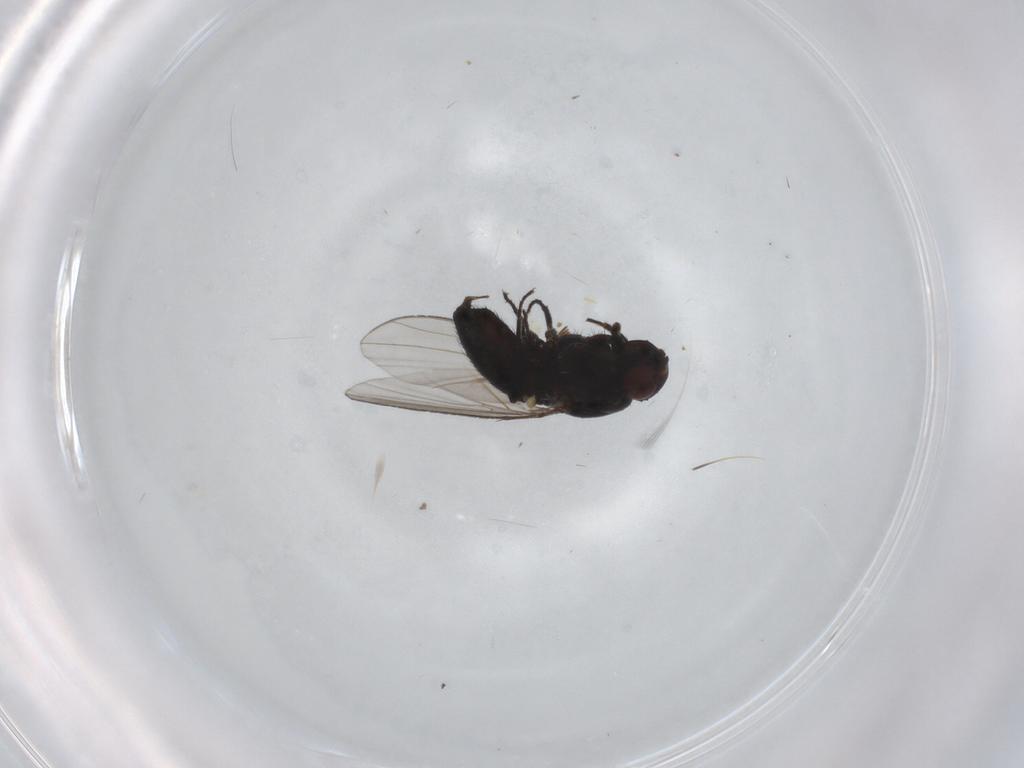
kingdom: Animalia
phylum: Arthropoda
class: Insecta
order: Diptera
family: Carnidae
